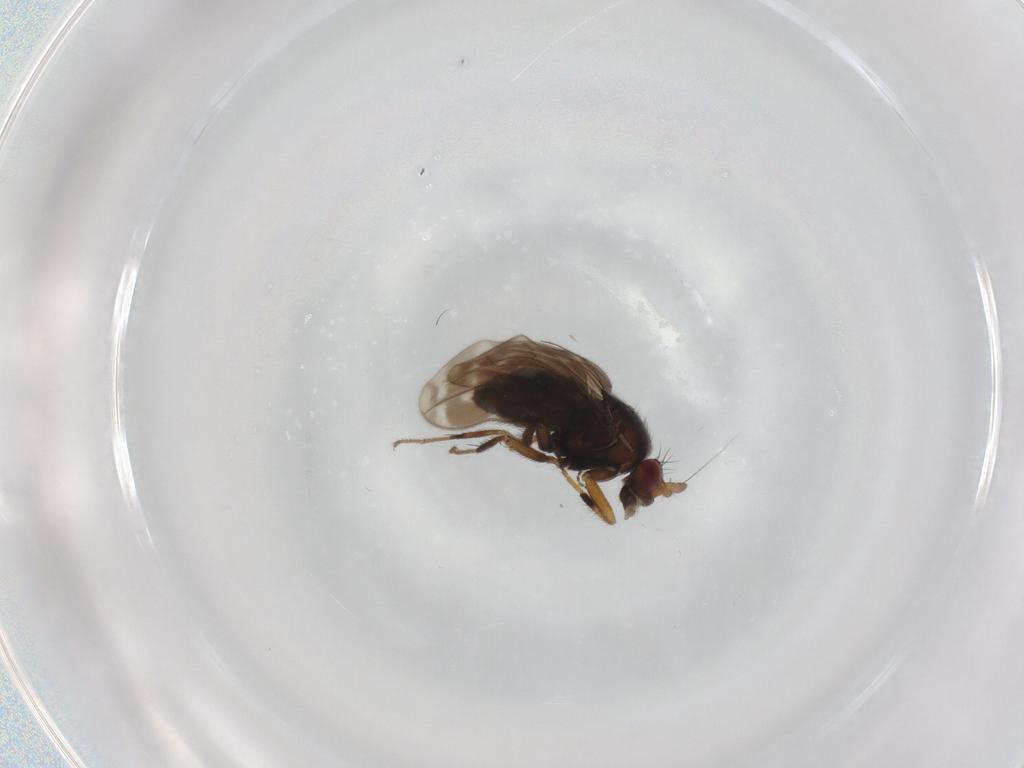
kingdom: Animalia
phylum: Arthropoda
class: Insecta
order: Diptera
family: Sphaeroceridae
